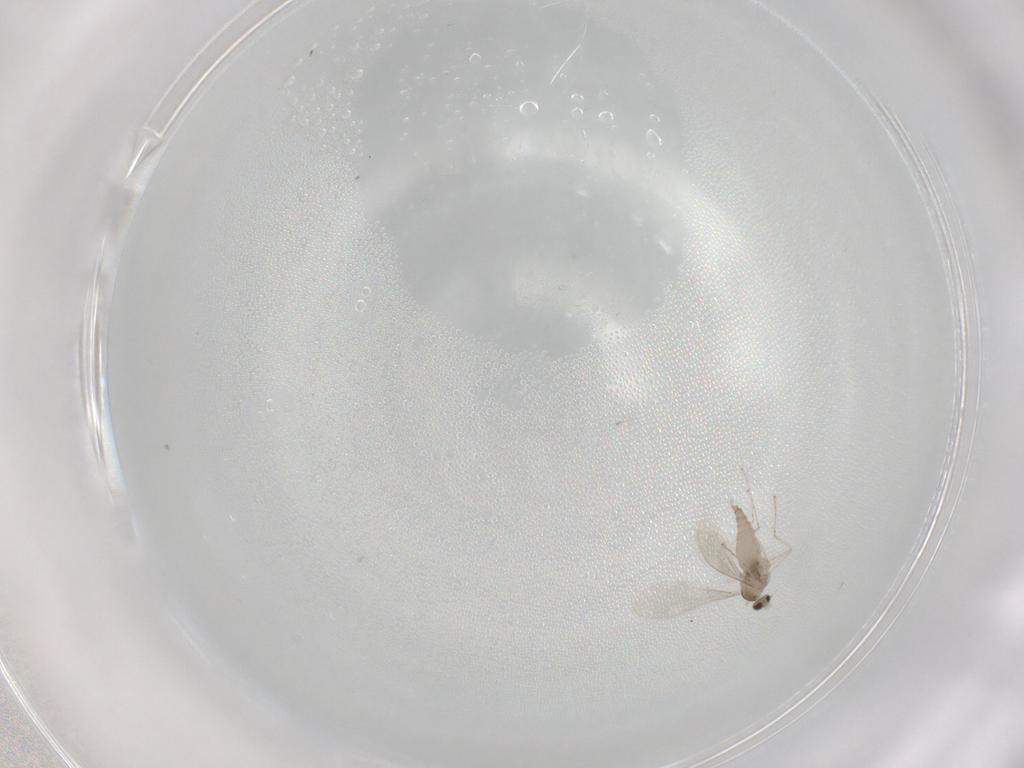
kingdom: Animalia
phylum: Arthropoda
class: Insecta
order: Diptera
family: Cecidomyiidae
